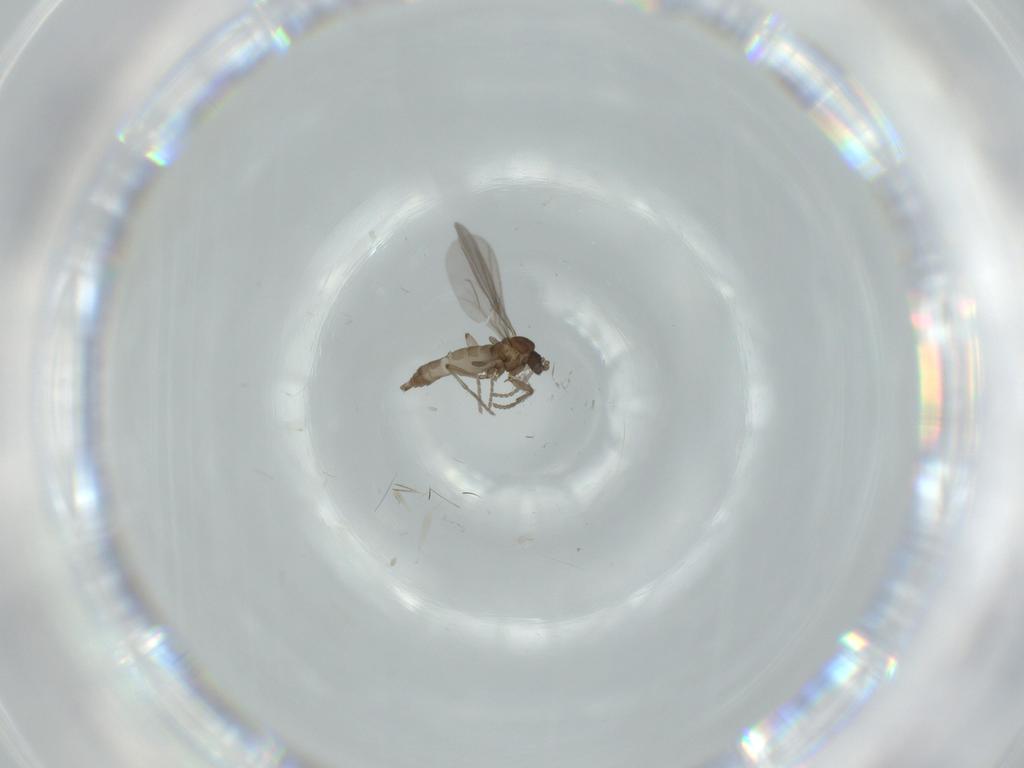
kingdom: Animalia
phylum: Arthropoda
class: Insecta
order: Diptera
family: Sciaridae
